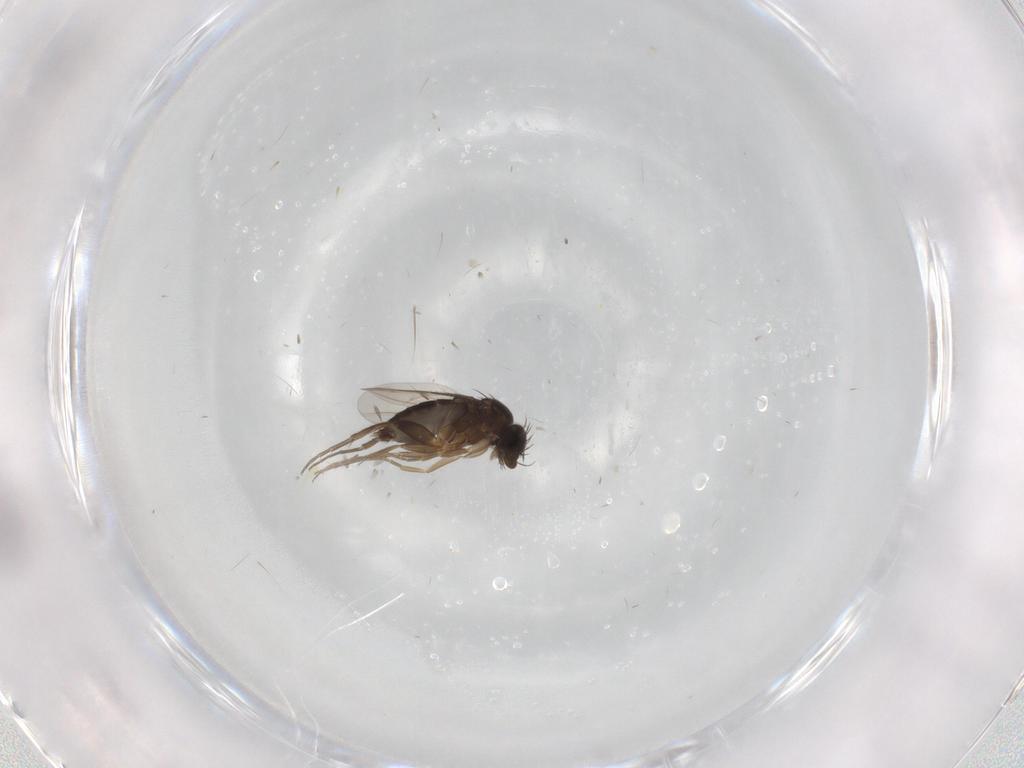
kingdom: Animalia
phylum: Arthropoda
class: Insecta
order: Diptera
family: Phoridae
